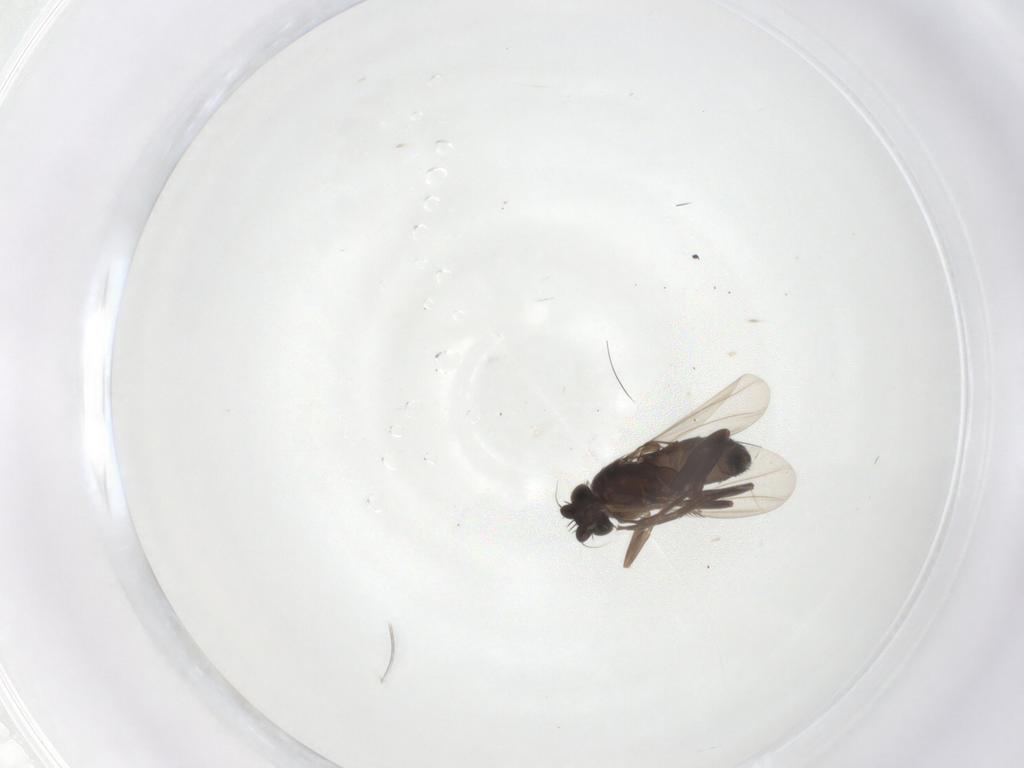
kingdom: Animalia
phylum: Arthropoda
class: Insecta
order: Diptera
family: Phoridae
